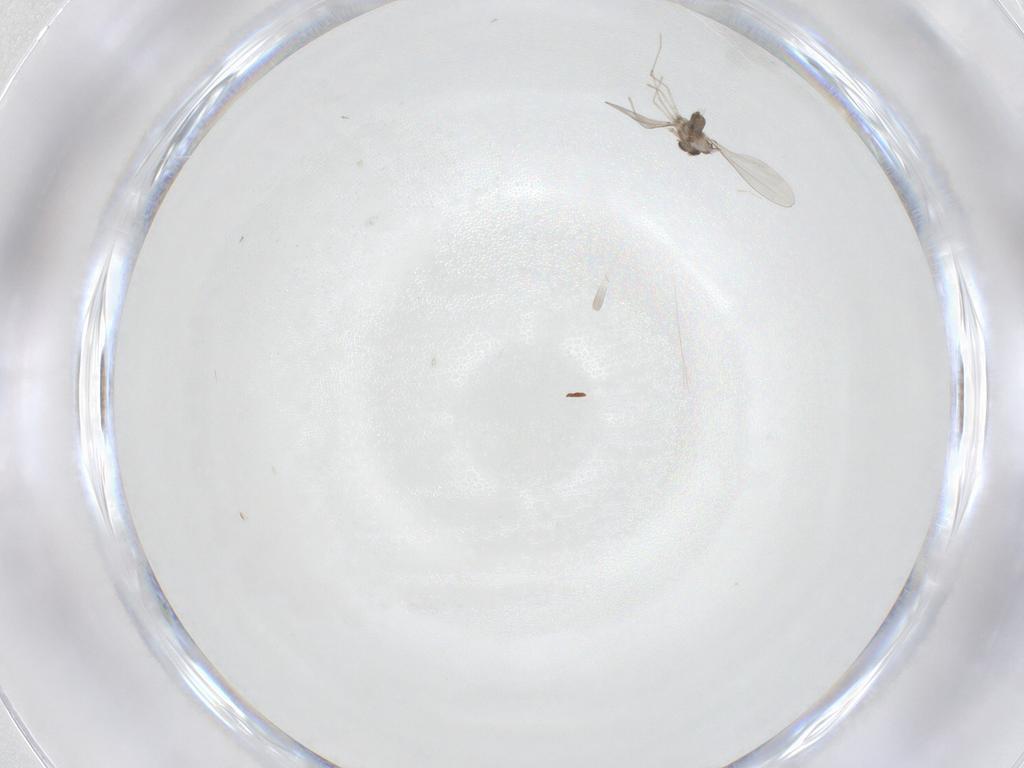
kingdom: Animalia
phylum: Arthropoda
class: Insecta
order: Diptera
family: Cecidomyiidae
